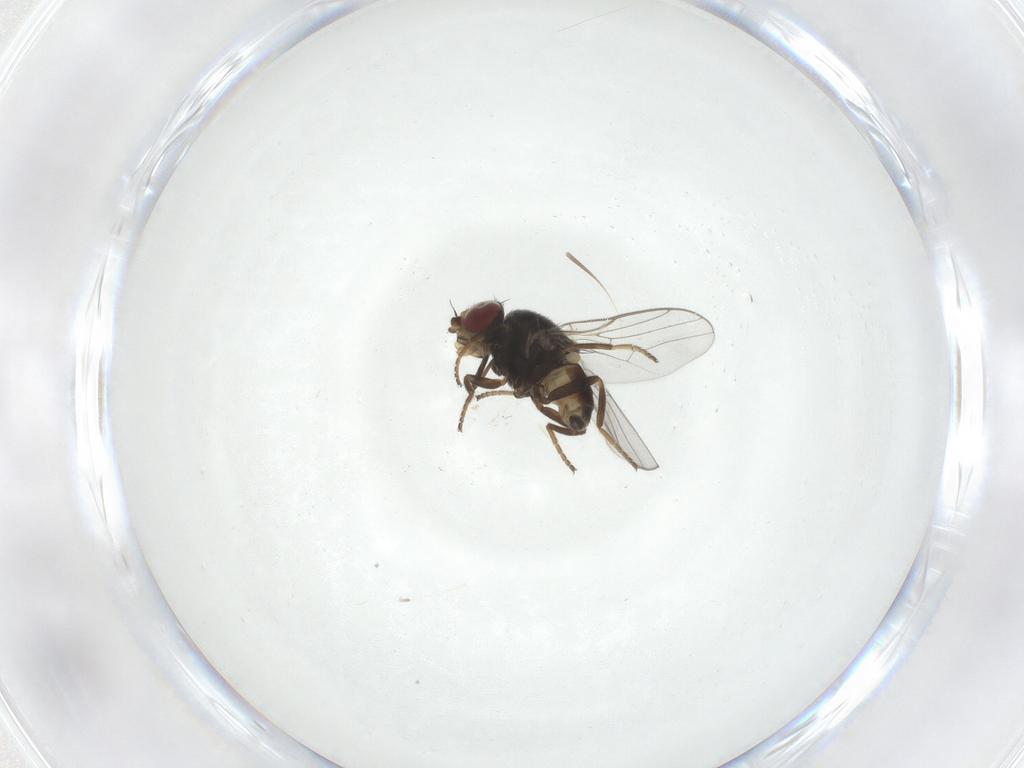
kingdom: Animalia
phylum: Arthropoda
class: Insecta
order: Diptera
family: Chloropidae
